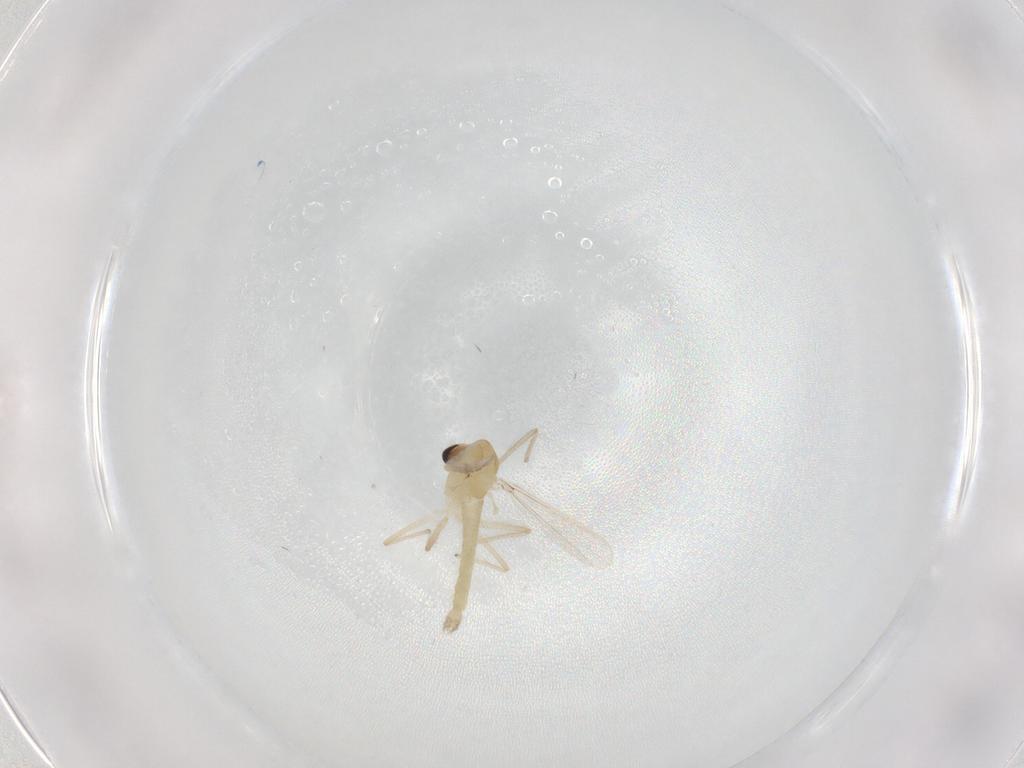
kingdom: Animalia
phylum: Arthropoda
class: Insecta
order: Diptera
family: Chironomidae
